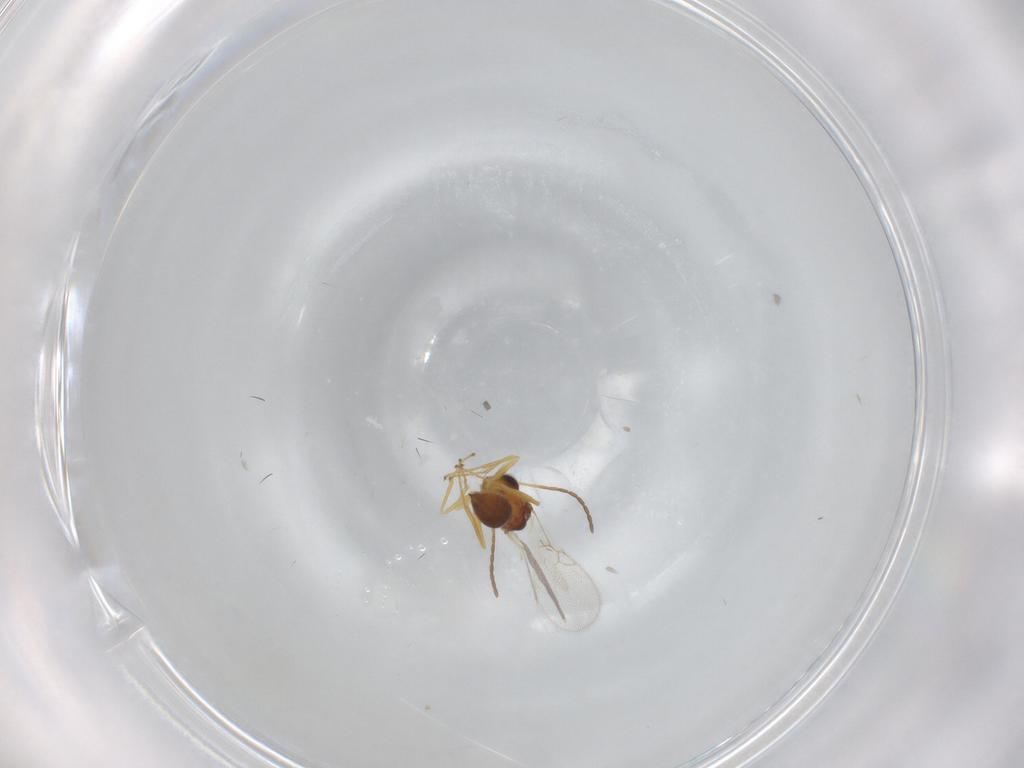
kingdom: Animalia
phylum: Arthropoda
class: Insecta
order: Hymenoptera
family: Figitidae
